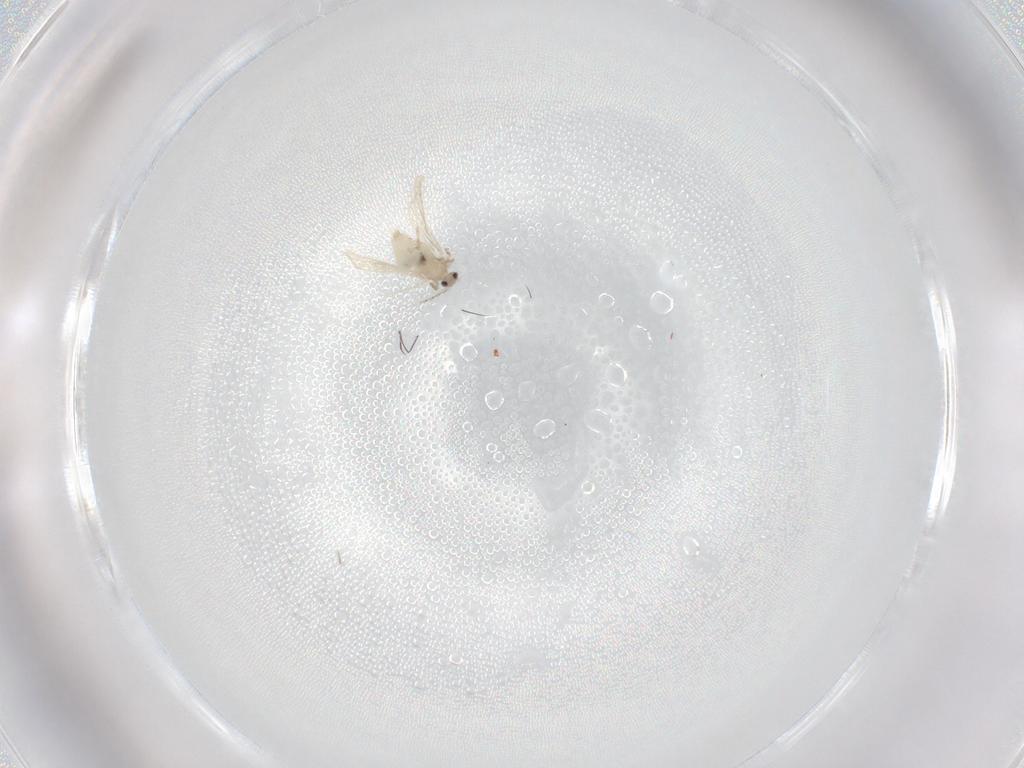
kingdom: Animalia
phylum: Arthropoda
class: Insecta
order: Diptera
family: Cecidomyiidae
